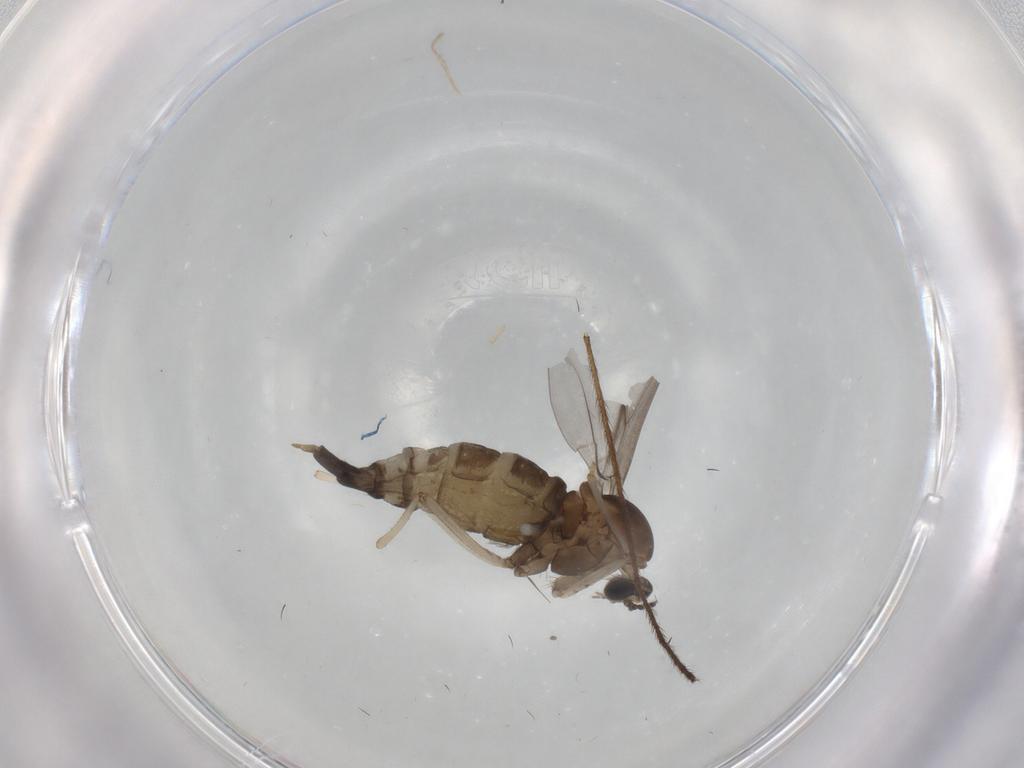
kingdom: Animalia
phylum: Arthropoda
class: Insecta
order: Diptera
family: Cecidomyiidae
